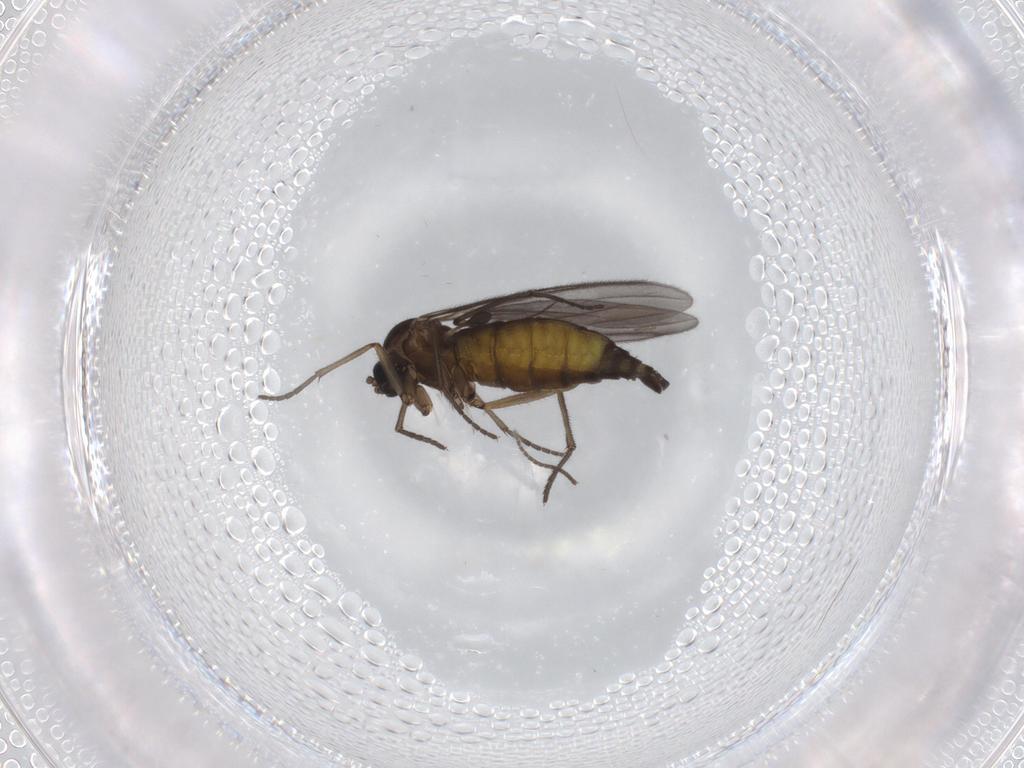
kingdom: Animalia
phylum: Arthropoda
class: Insecta
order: Diptera
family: Sciaridae
